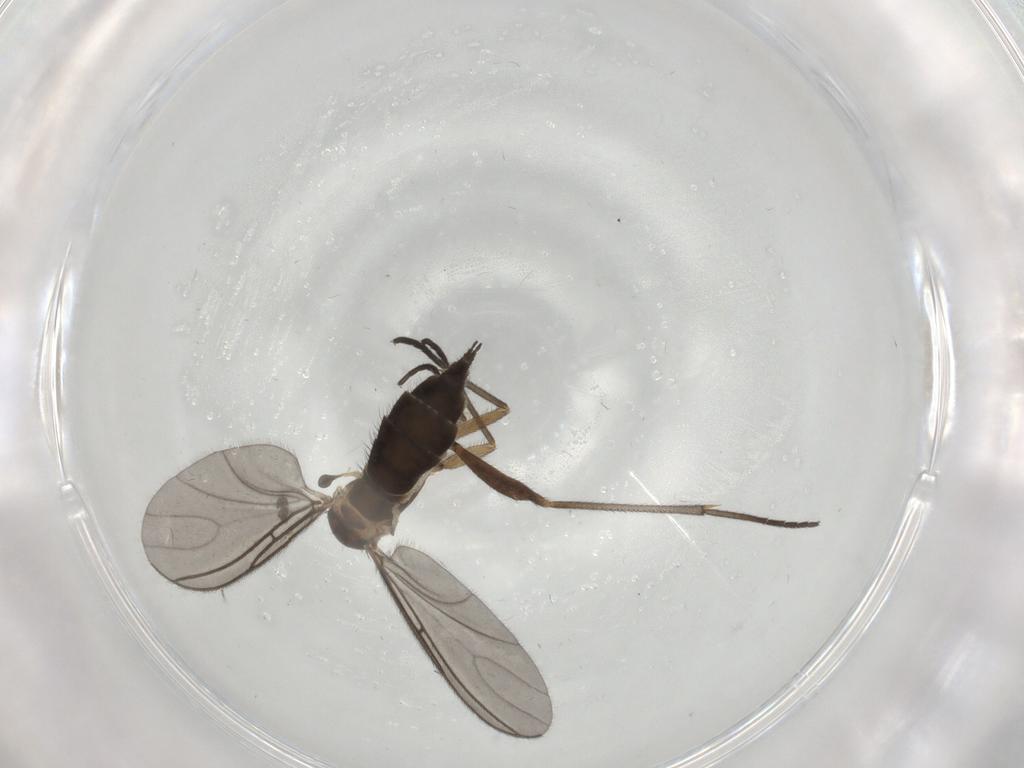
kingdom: Animalia
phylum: Arthropoda
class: Insecta
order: Diptera
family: Sciaridae
